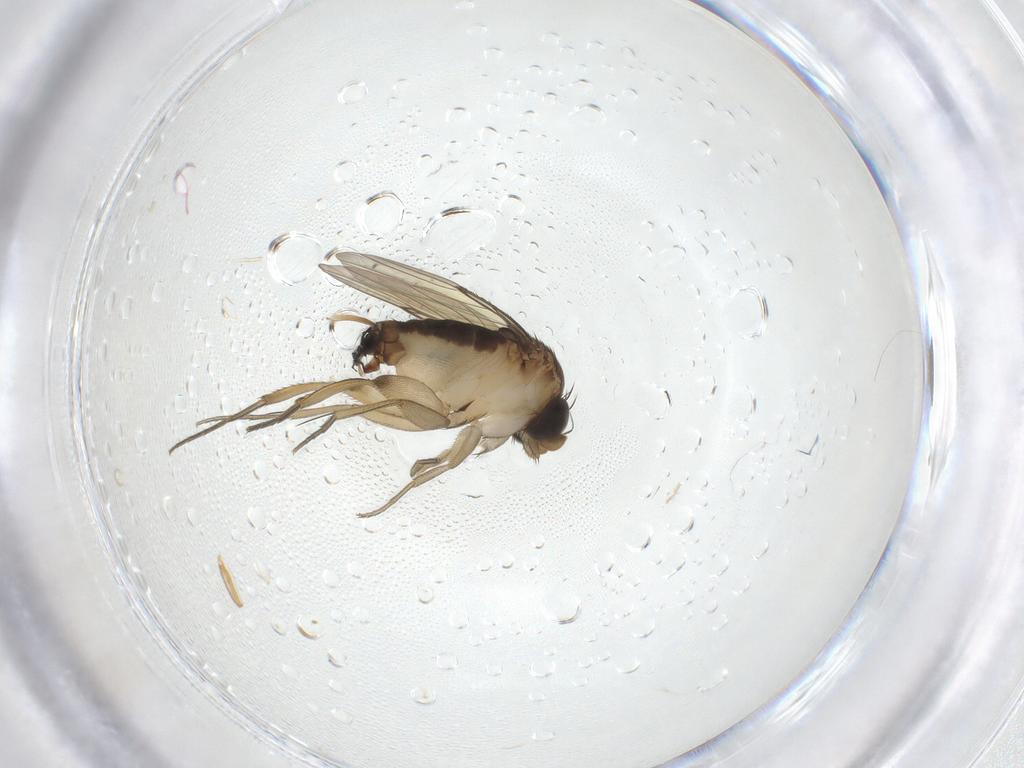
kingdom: Animalia
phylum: Arthropoda
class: Insecta
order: Diptera
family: Phoridae
